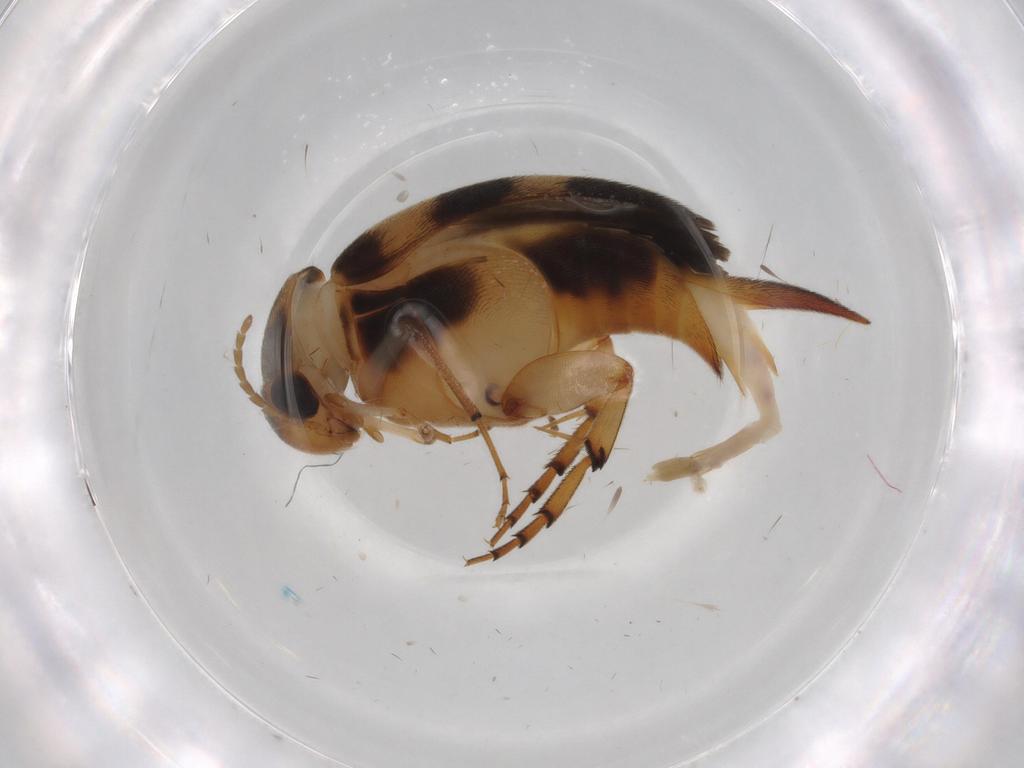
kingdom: Animalia
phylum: Arthropoda
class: Insecta
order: Coleoptera
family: Mordellidae
